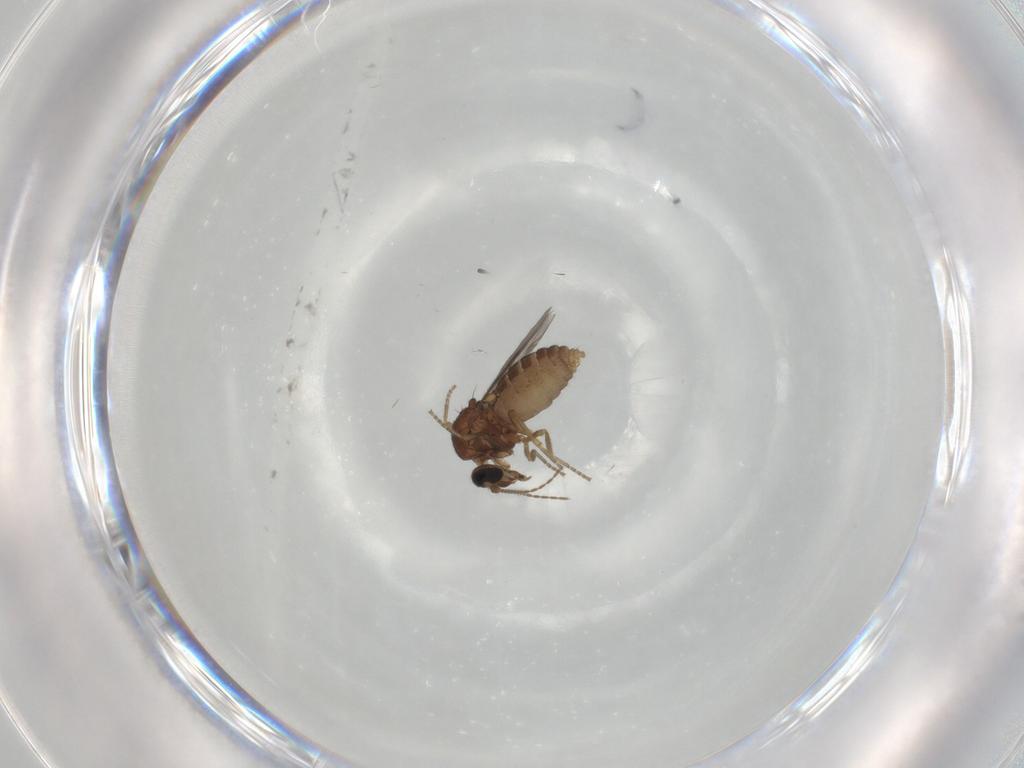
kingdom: Animalia
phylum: Arthropoda
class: Insecta
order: Diptera
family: Ceratopogonidae
